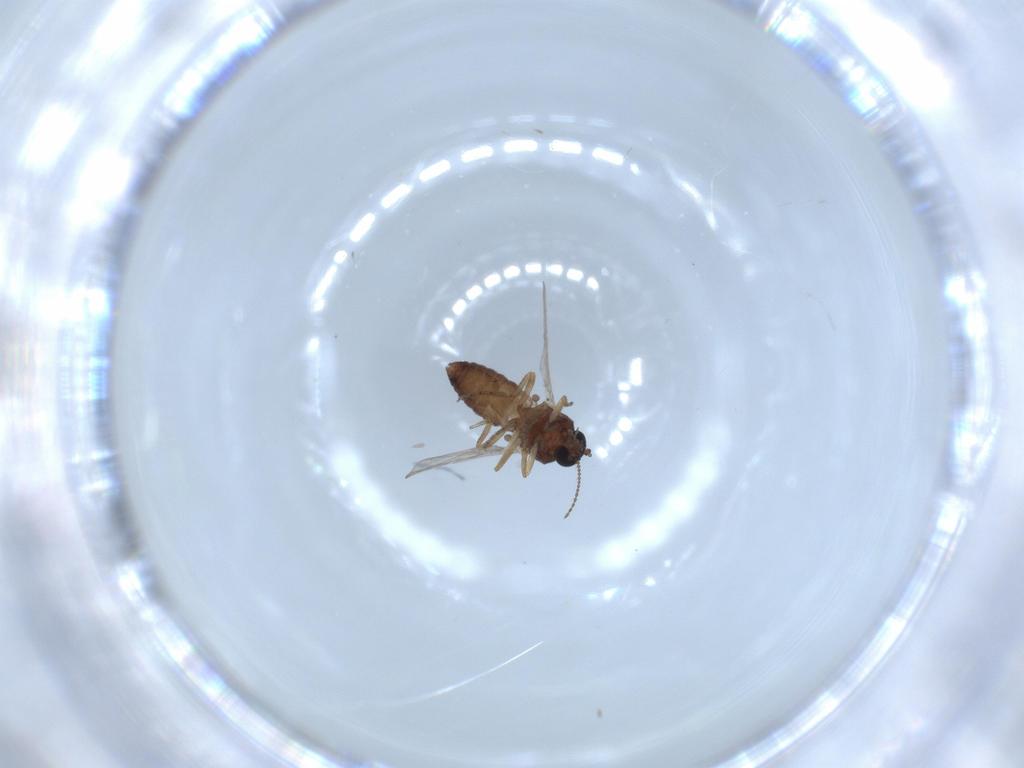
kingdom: Animalia
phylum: Arthropoda
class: Insecta
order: Diptera
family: Ceratopogonidae
